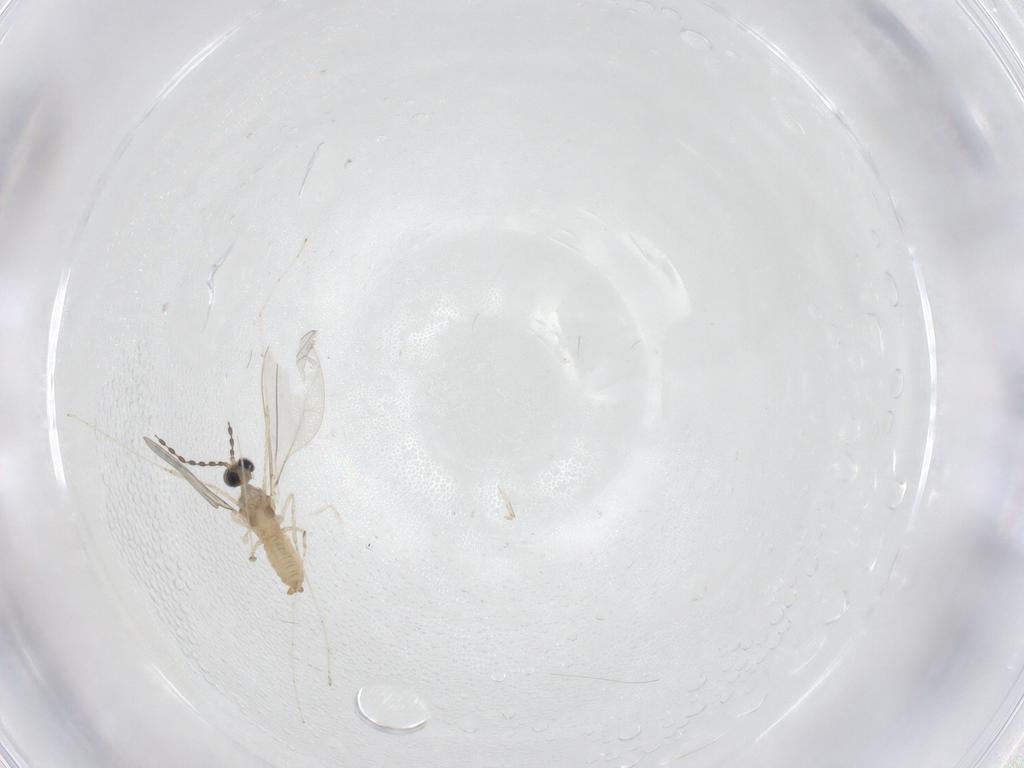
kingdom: Animalia
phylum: Arthropoda
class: Insecta
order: Diptera
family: Cecidomyiidae
